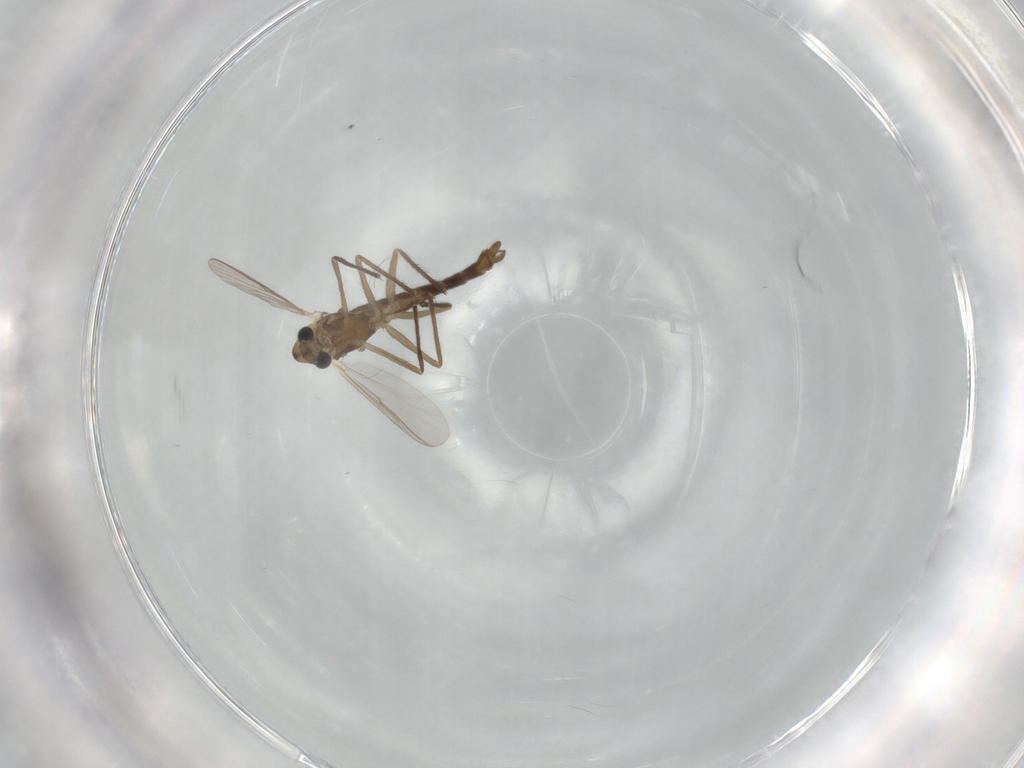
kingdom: Animalia
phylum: Arthropoda
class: Insecta
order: Diptera
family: Chironomidae
